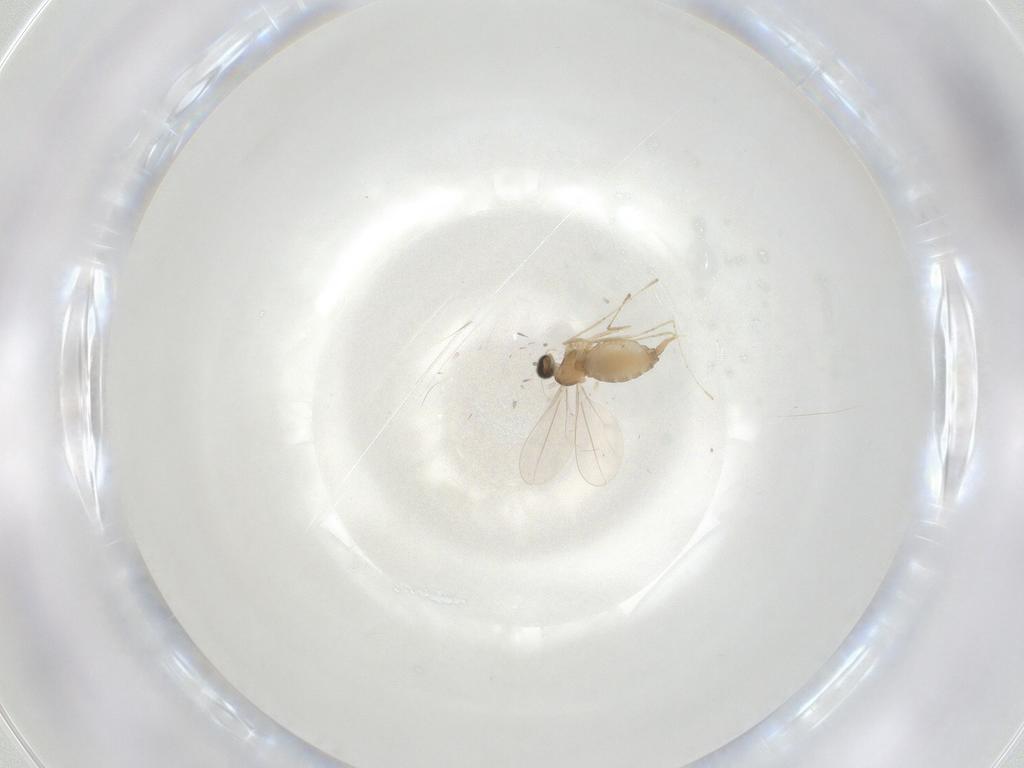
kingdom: Animalia
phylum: Arthropoda
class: Insecta
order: Diptera
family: Cecidomyiidae
